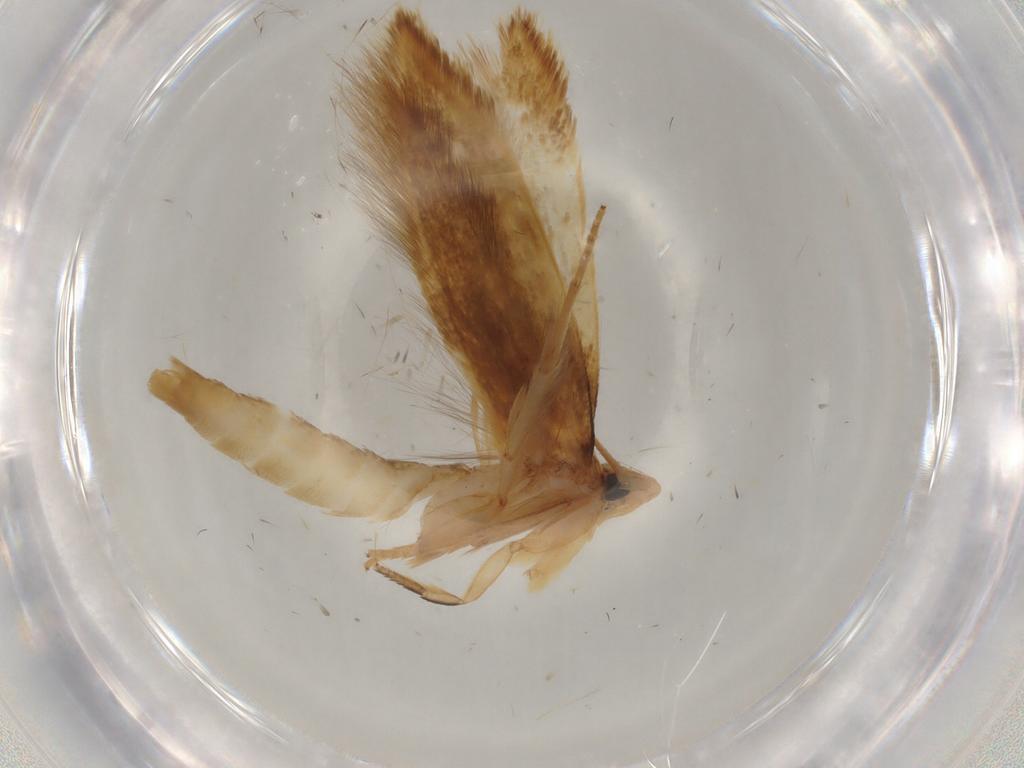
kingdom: Animalia
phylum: Arthropoda
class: Insecta
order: Lepidoptera
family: Tineidae
